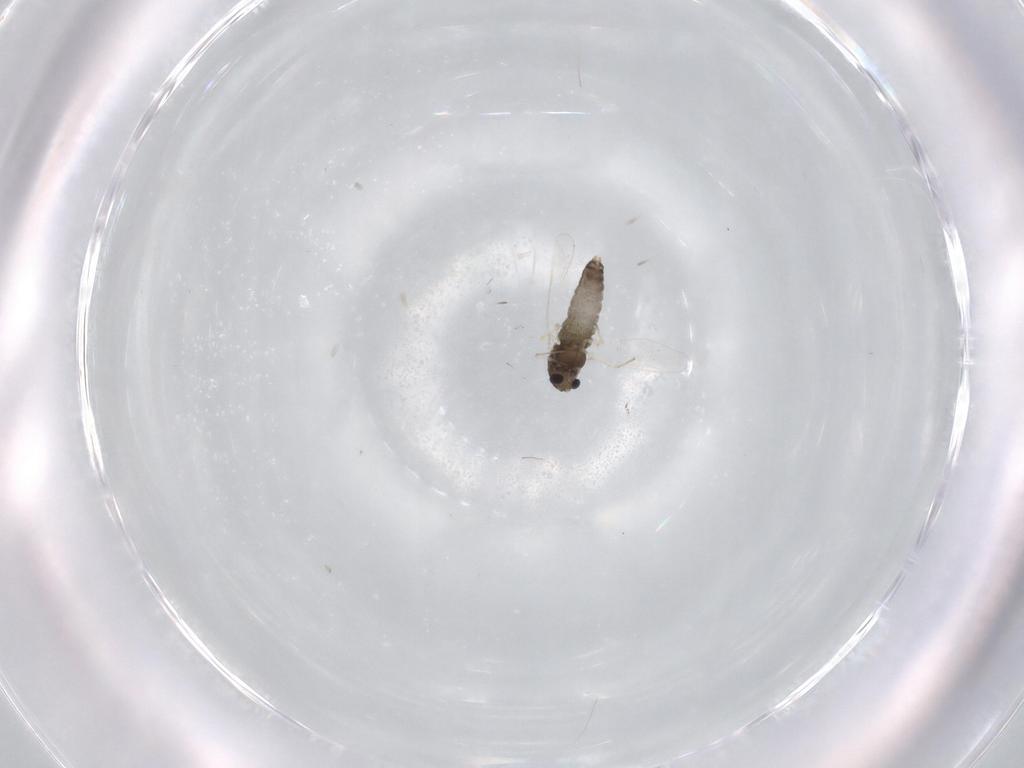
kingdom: Animalia
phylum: Arthropoda
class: Insecta
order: Diptera
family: Chironomidae
